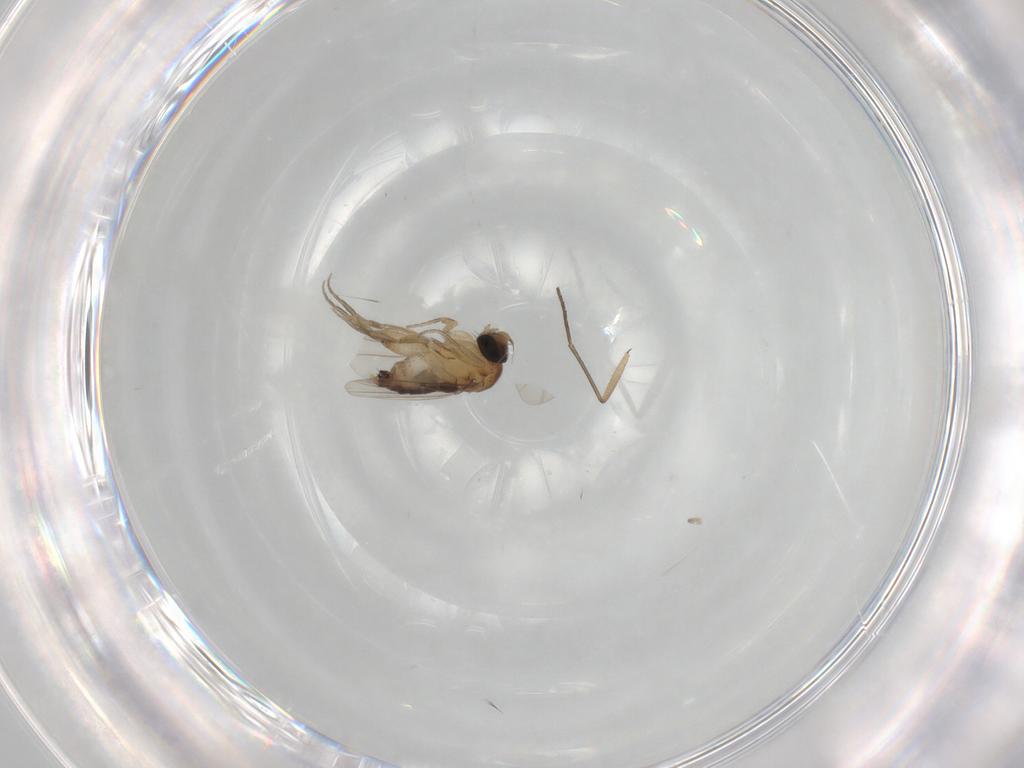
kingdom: Animalia
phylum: Arthropoda
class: Insecta
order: Diptera
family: Phoridae
